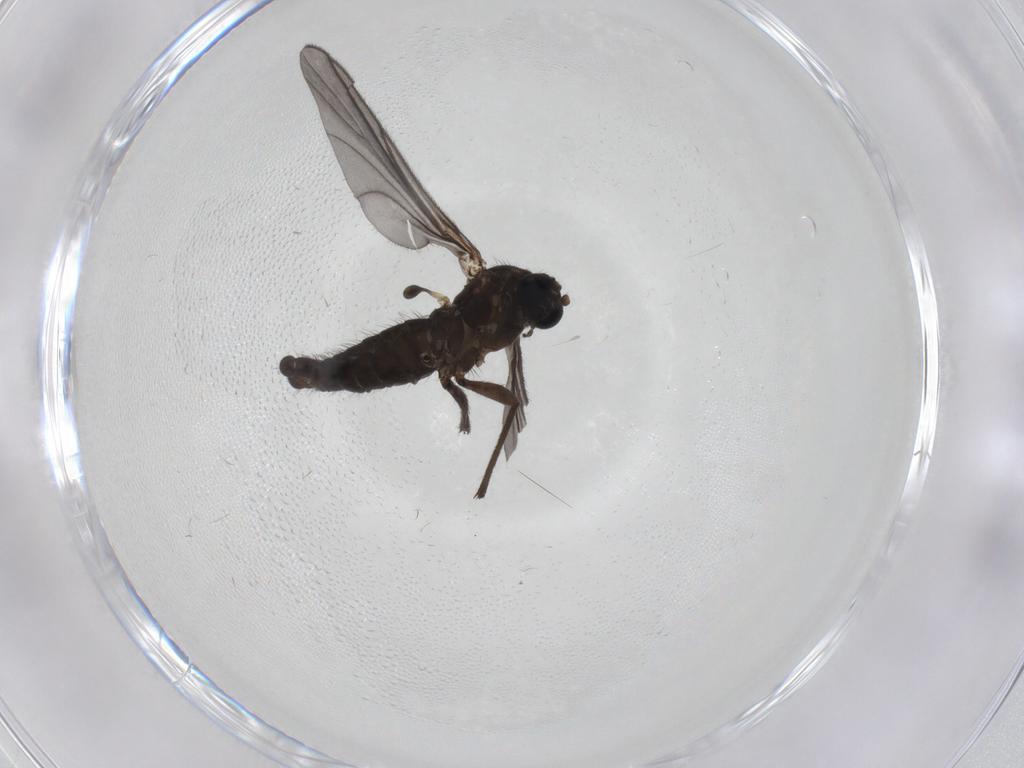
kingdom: Animalia
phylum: Arthropoda
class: Insecta
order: Diptera
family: Sciaridae
